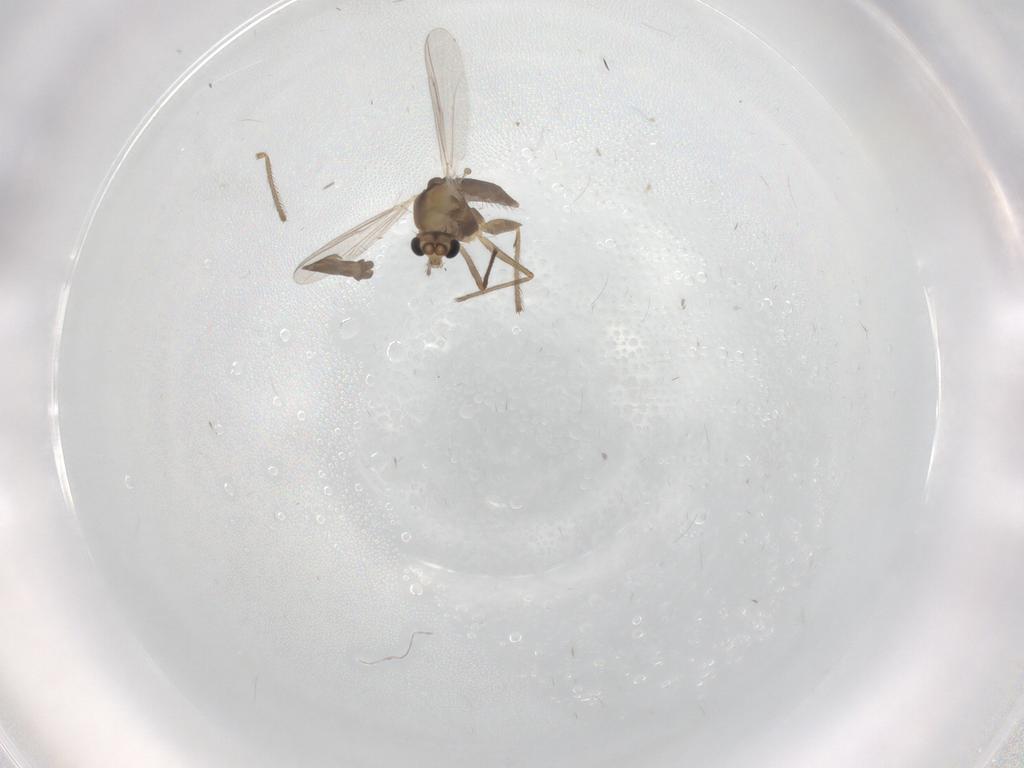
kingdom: Animalia
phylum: Arthropoda
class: Insecta
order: Diptera
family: Chironomidae
